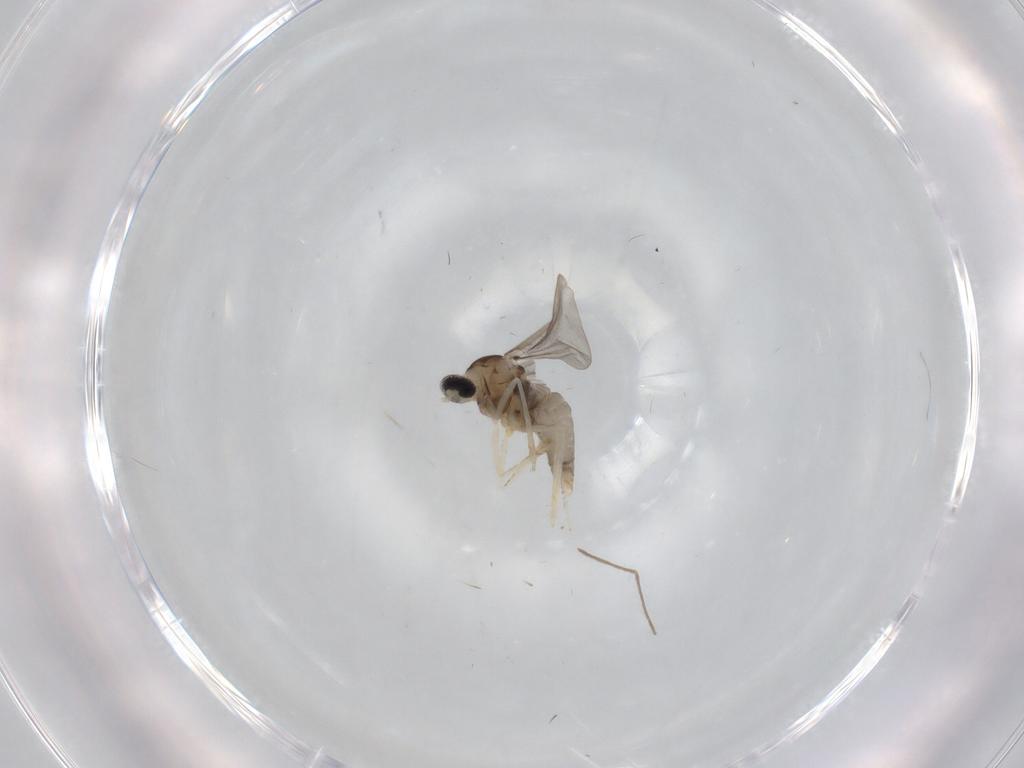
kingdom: Animalia
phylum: Arthropoda
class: Insecta
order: Diptera
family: Cecidomyiidae
